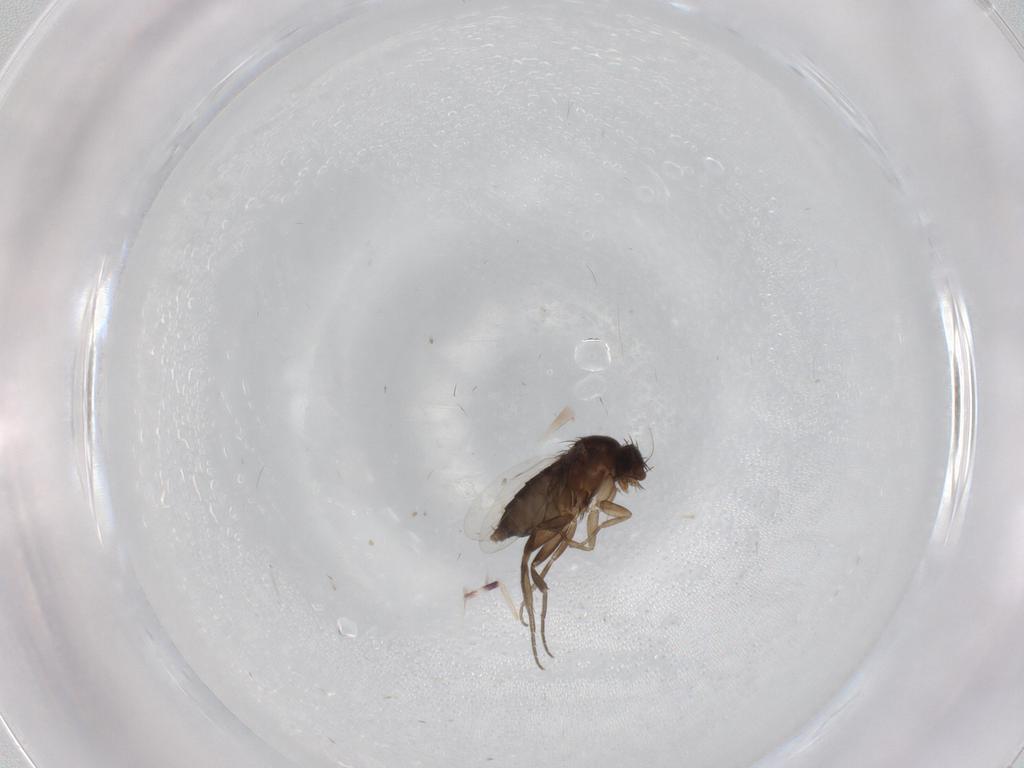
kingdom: Animalia
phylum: Arthropoda
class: Insecta
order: Diptera
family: Phoridae
